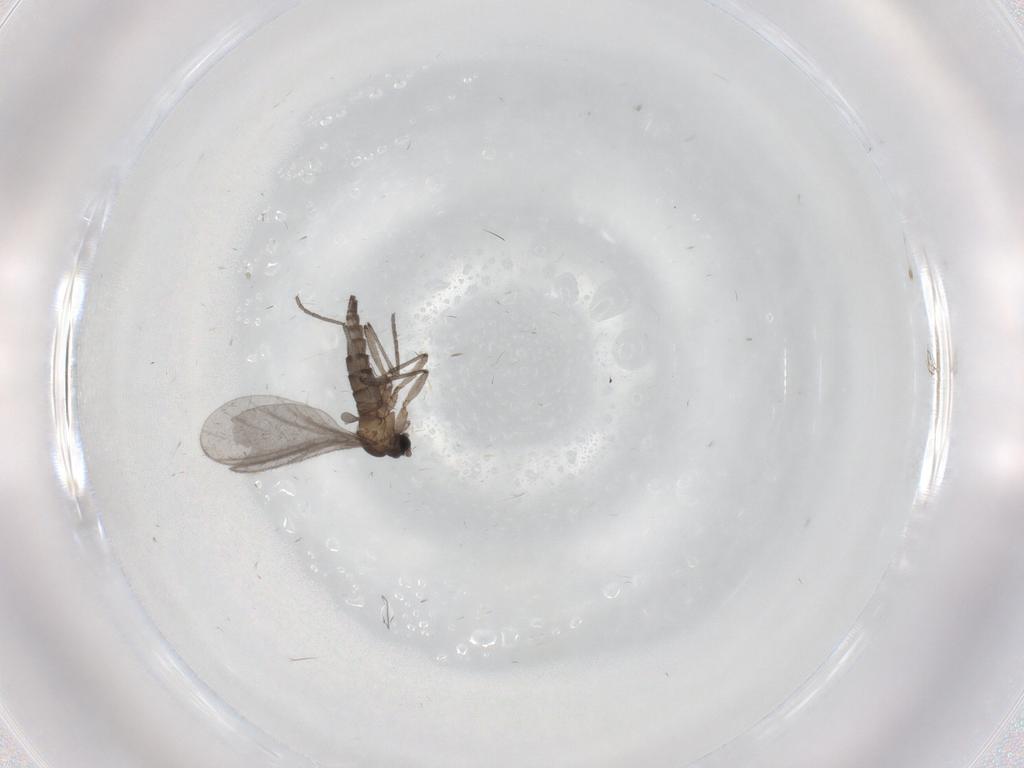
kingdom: Animalia
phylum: Arthropoda
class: Insecta
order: Diptera
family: Sciaridae
